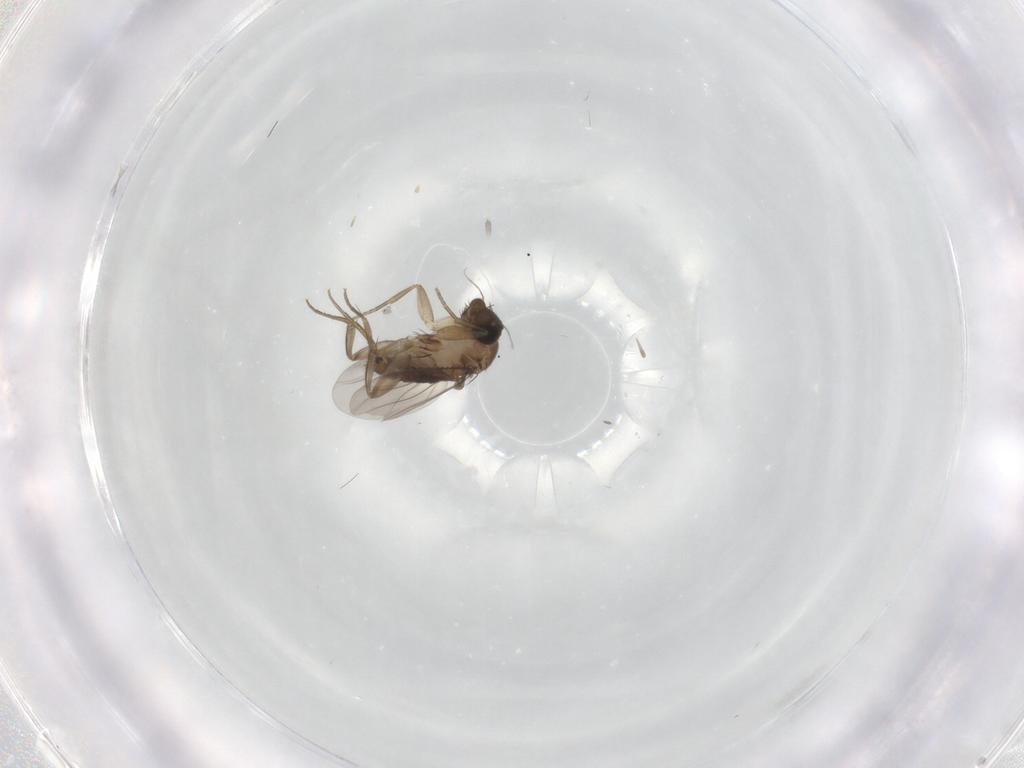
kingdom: Animalia
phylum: Arthropoda
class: Insecta
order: Diptera
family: Phoridae
